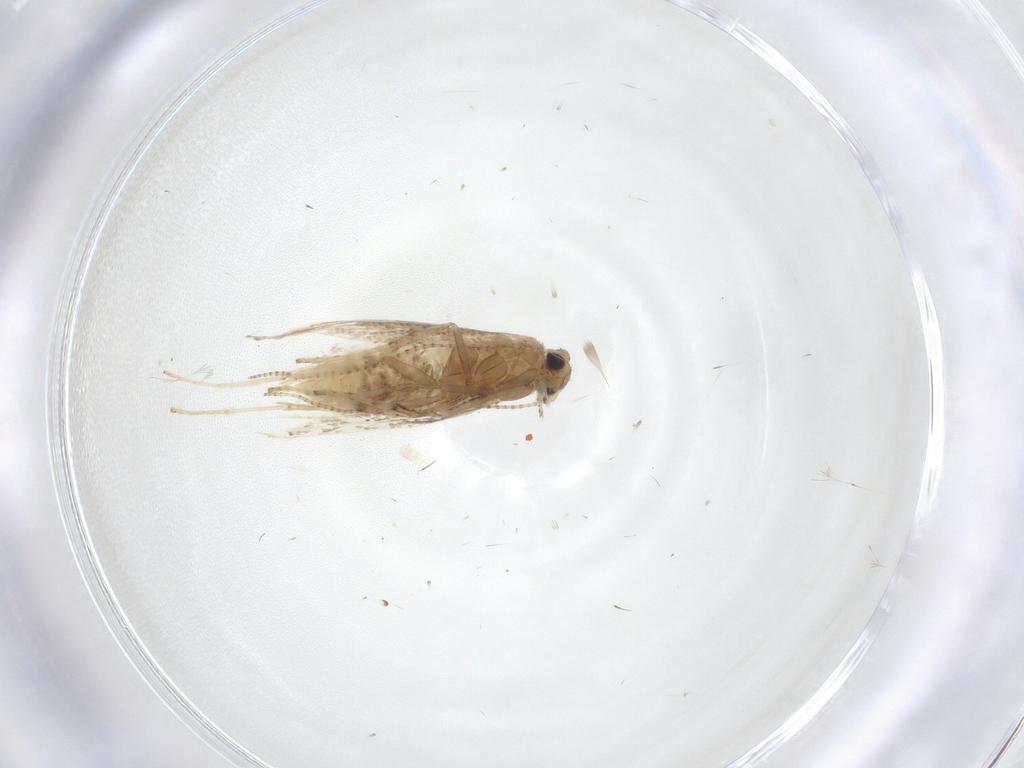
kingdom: Animalia
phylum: Arthropoda
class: Insecta
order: Lepidoptera
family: Gracillariidae
